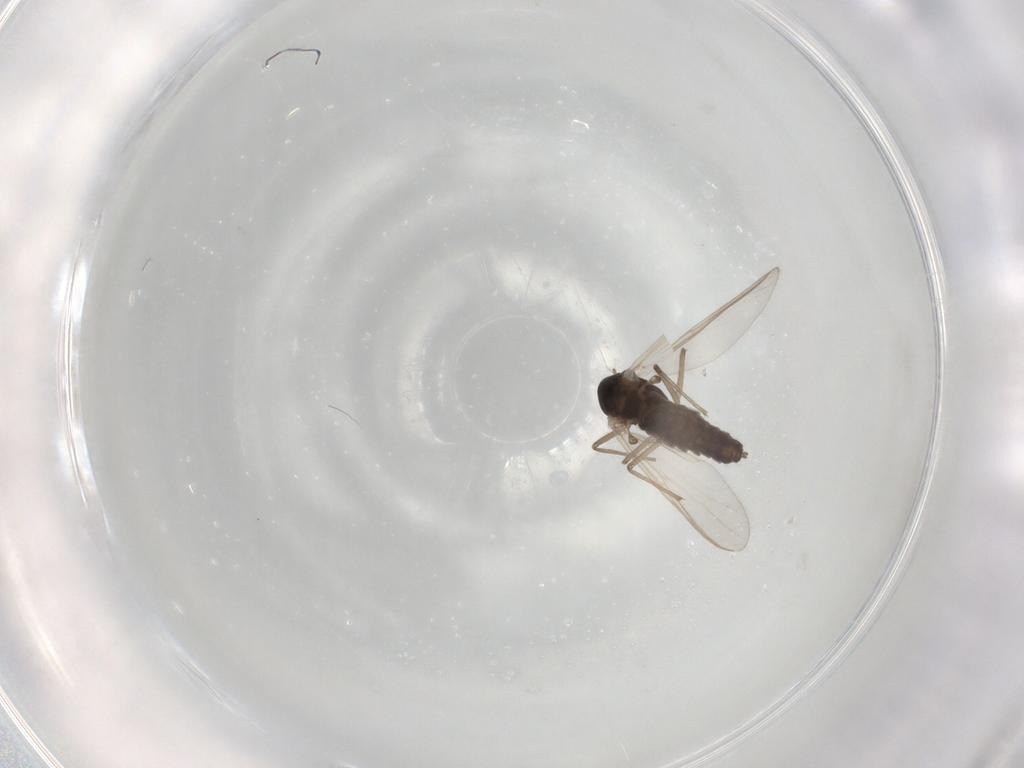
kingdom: Animalia
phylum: Arthropoda
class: Insecta
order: Diptera
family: Chironomidae
